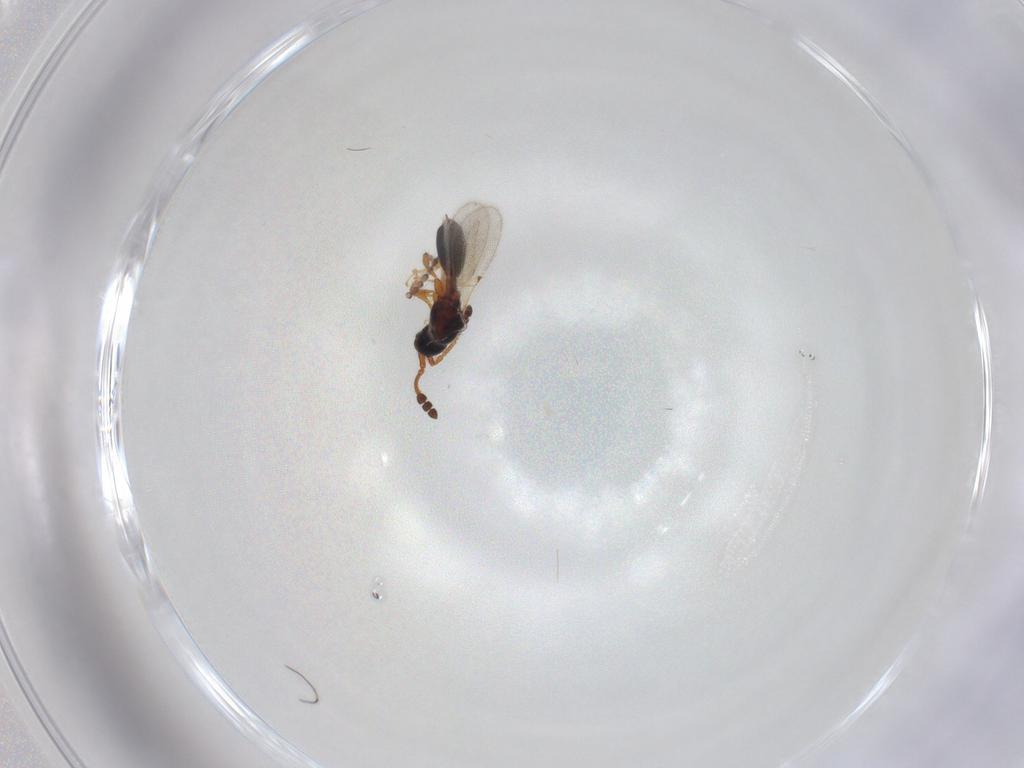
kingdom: Animalia
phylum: Arthropoda
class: Insecta
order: Hymenoptera
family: Diapriidae
